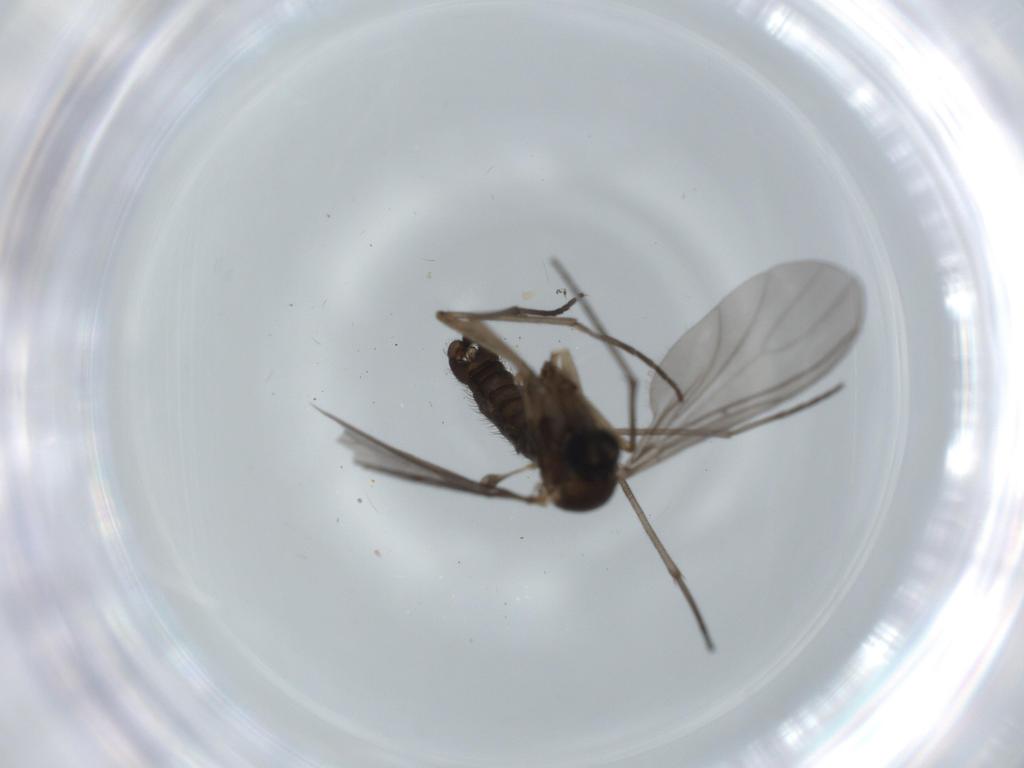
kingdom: Animalia
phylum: Arthropoda
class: Insecta
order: Diptera
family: Sciaridae
